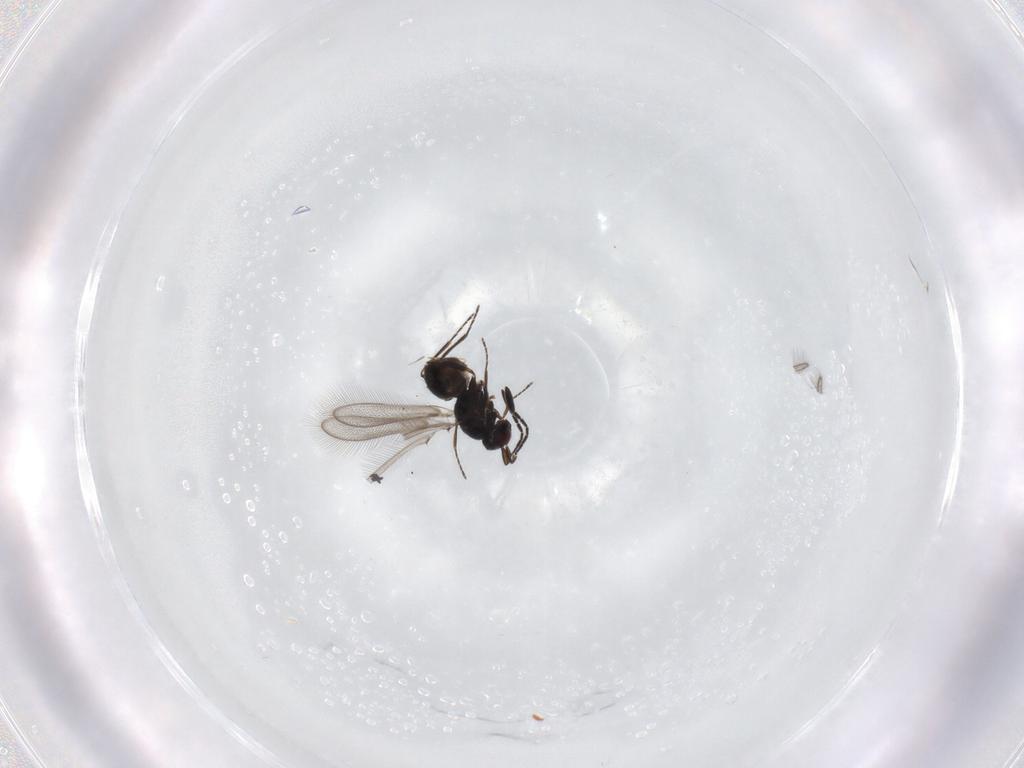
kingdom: Animalia
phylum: Arthropoda
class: Insecta
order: Hymenoptera
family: Mymaridae
